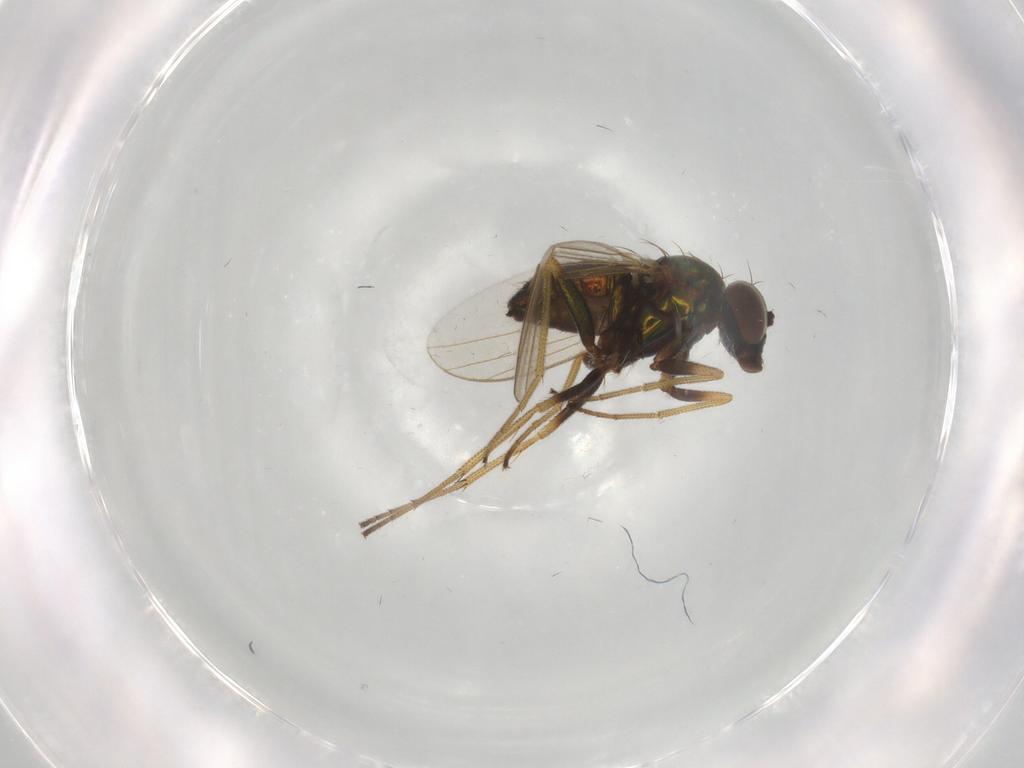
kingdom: Animalia
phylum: Arthropoda
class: Insecta
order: Diptera
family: Dolichopodidae
